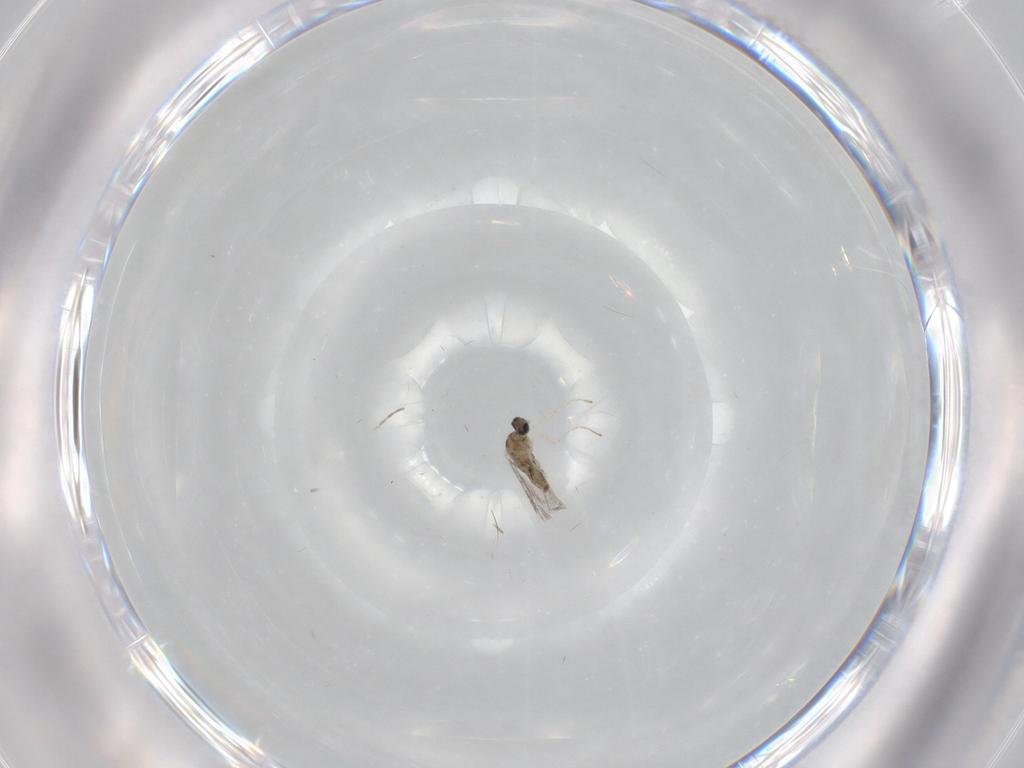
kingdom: Animalia
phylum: Arthropoda
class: Insecta
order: Diptera
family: Cecidomyiidae
